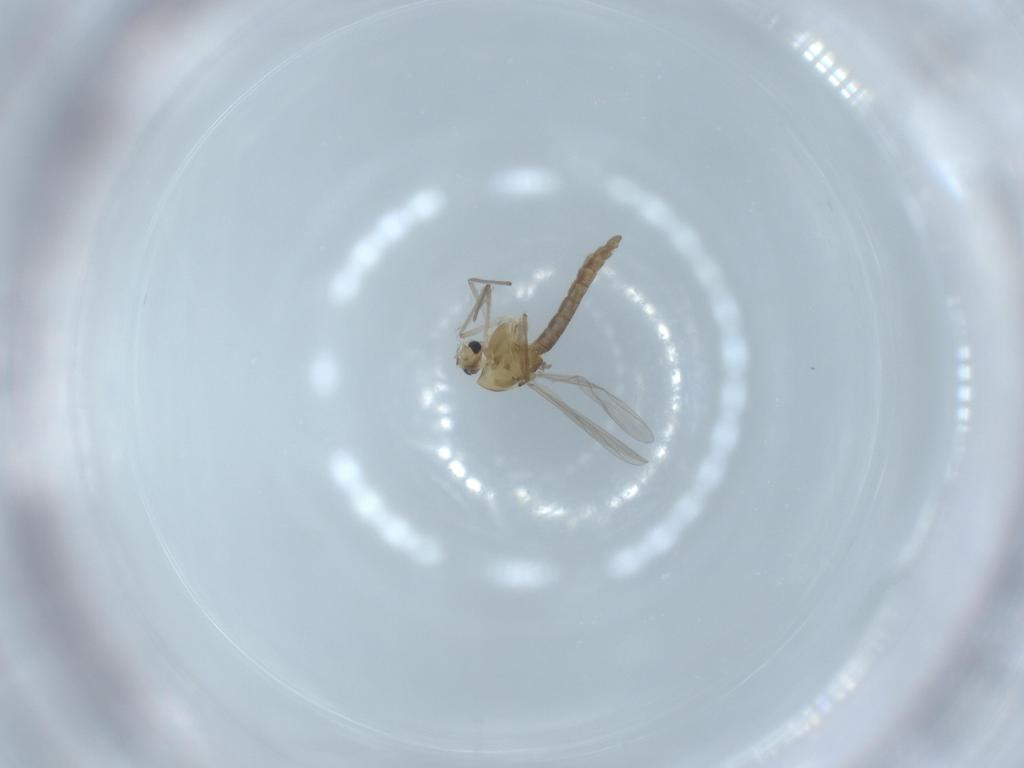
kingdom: Animalia
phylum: Arthropoda
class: Insecta
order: Diptera
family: Chironomidae
